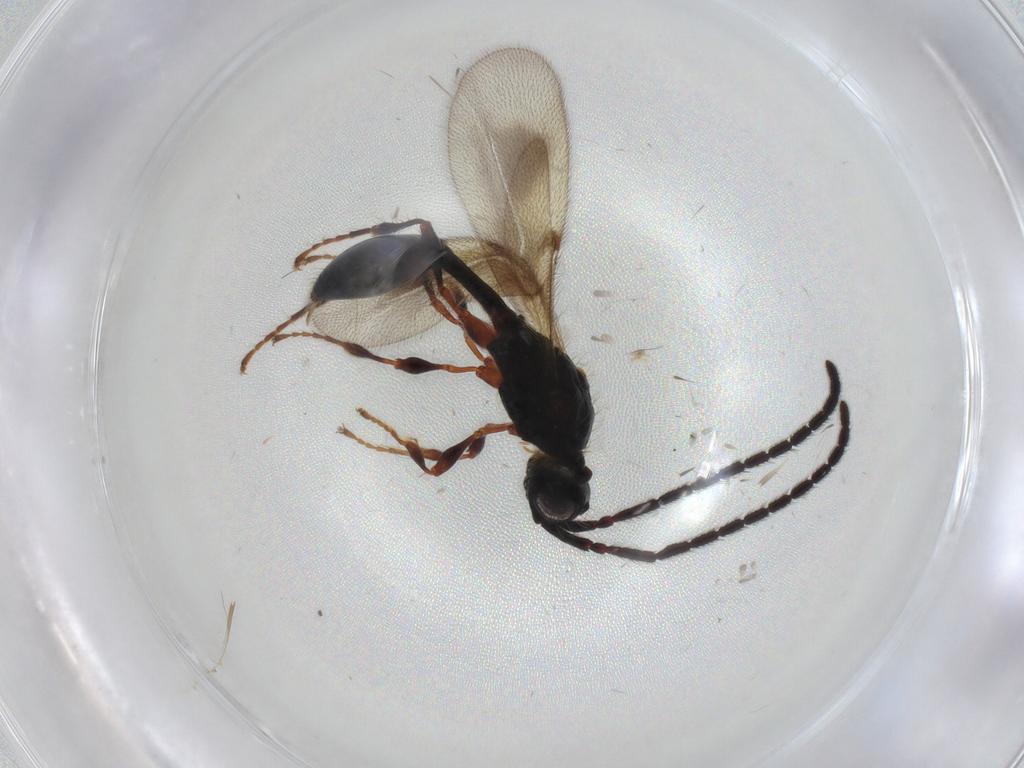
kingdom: Animalia
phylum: Arthropoda
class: Insecta
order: Hymenoptera
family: Diapriidae
